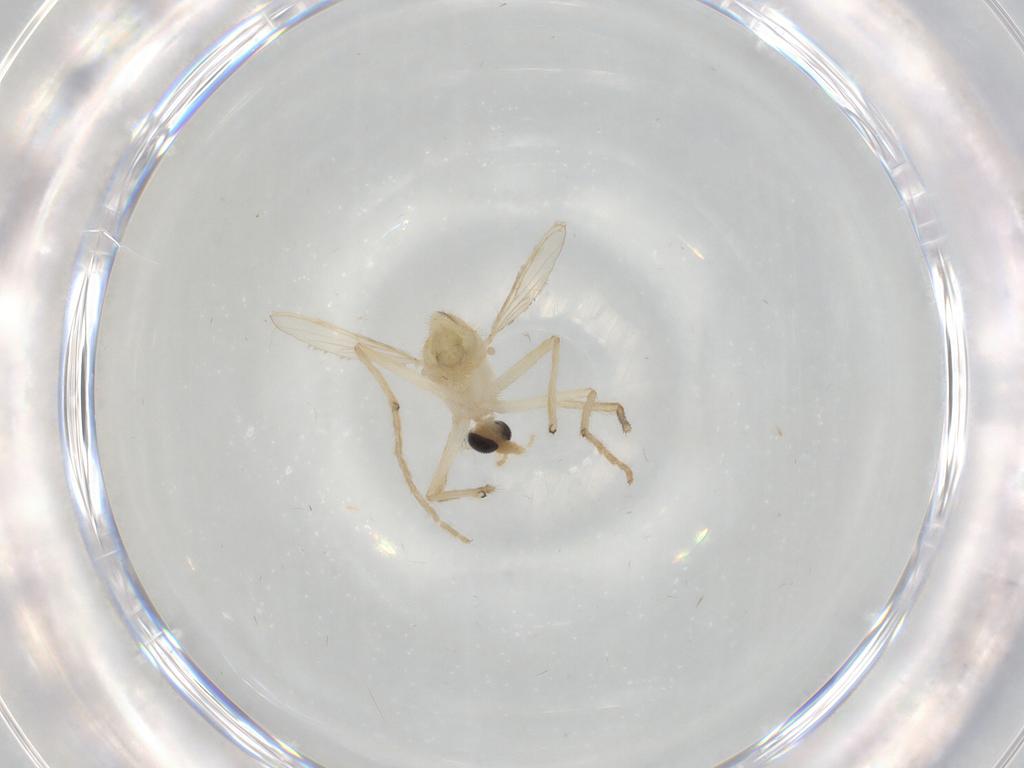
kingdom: Animalia
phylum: Arthropoda
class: Insecta
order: Diptera
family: Chironomidae
